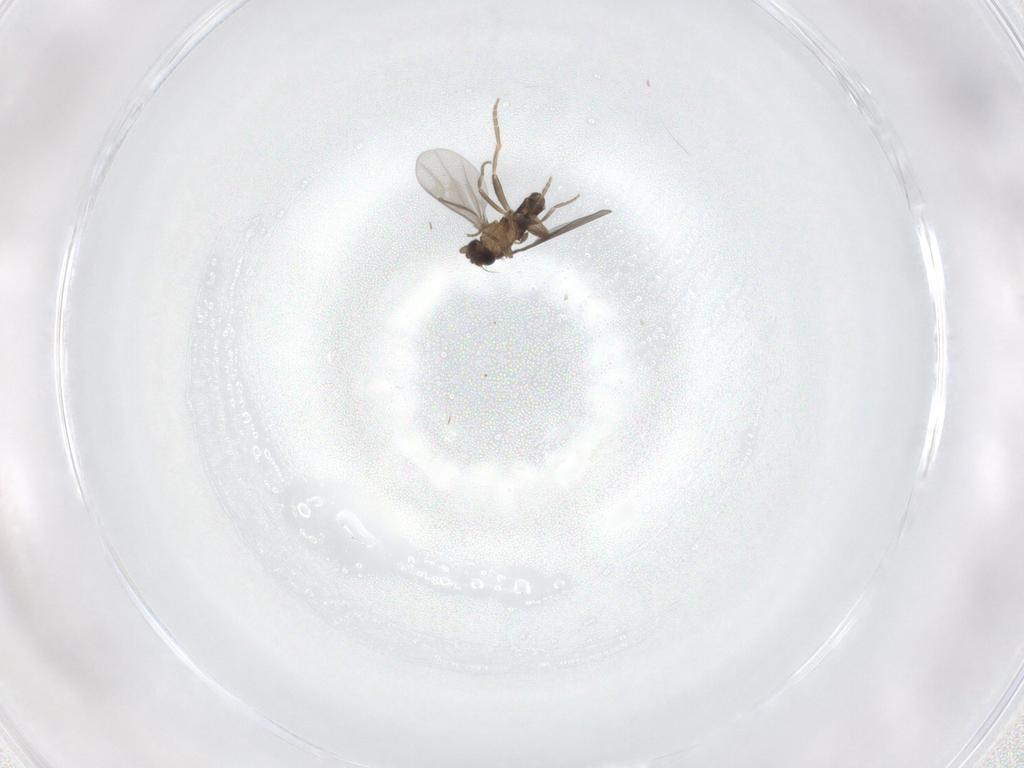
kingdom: Animalia
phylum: Arthropoda
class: Insecta
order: Diptera
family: Phoridae
